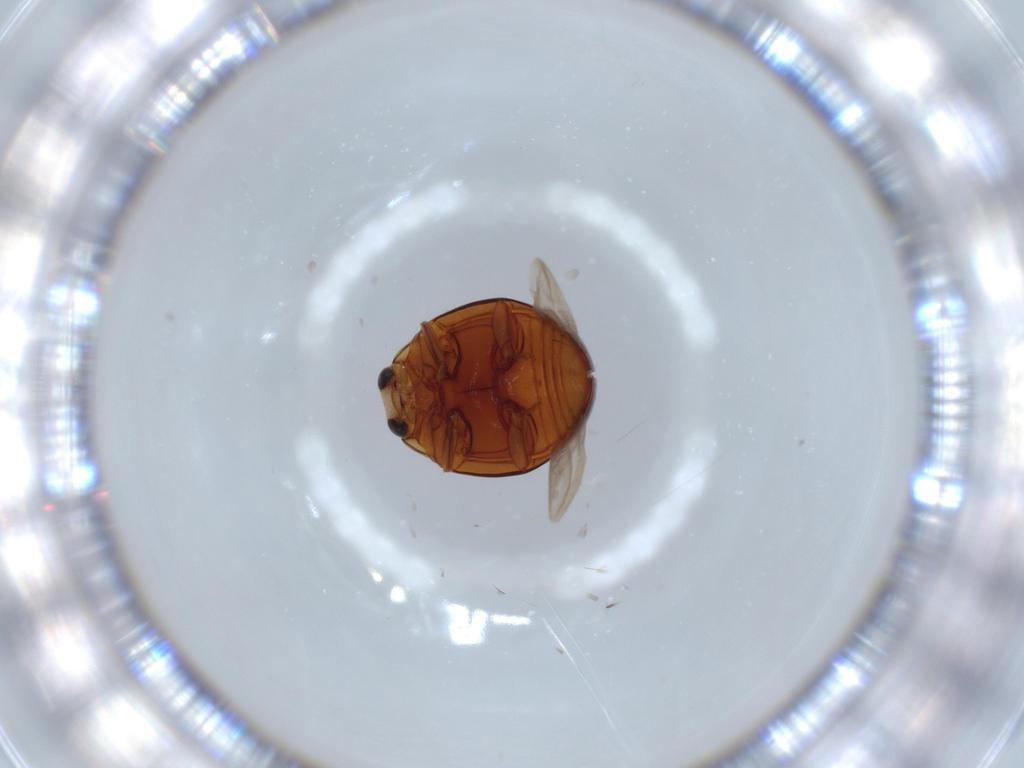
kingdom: Animalia
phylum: Arthropoda
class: Insecta
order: Coleoptera
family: Coccinellidae
